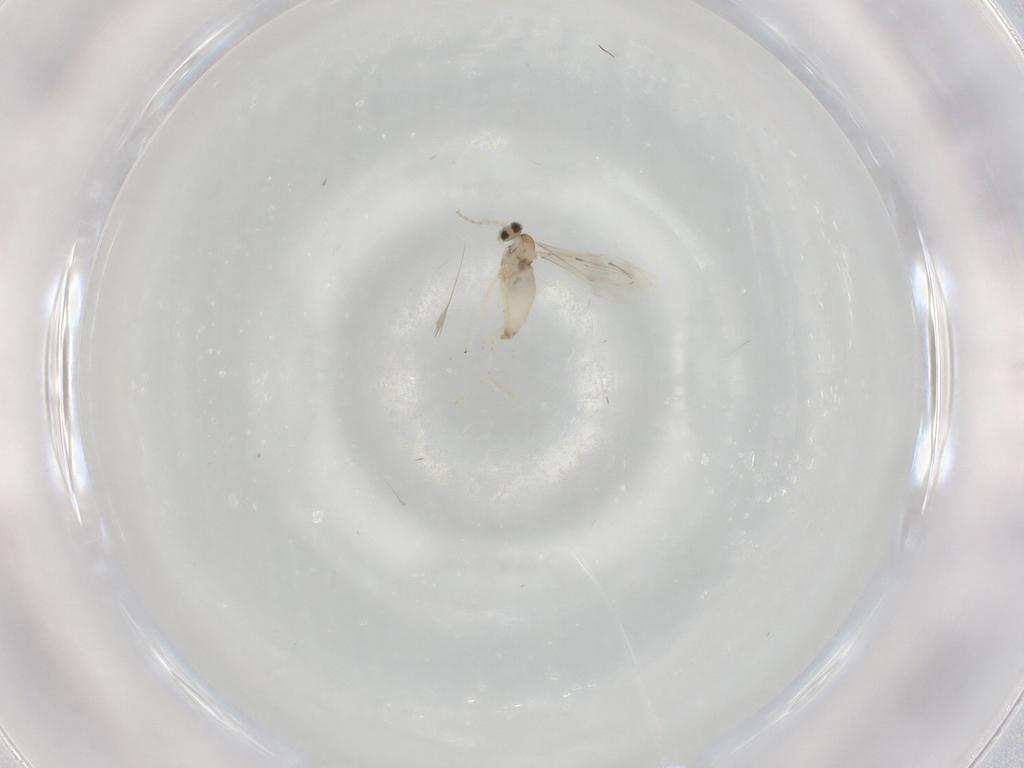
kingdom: Animalia
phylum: Arthropoda
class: Insecta
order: Diptera
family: Cecidomyiidae
